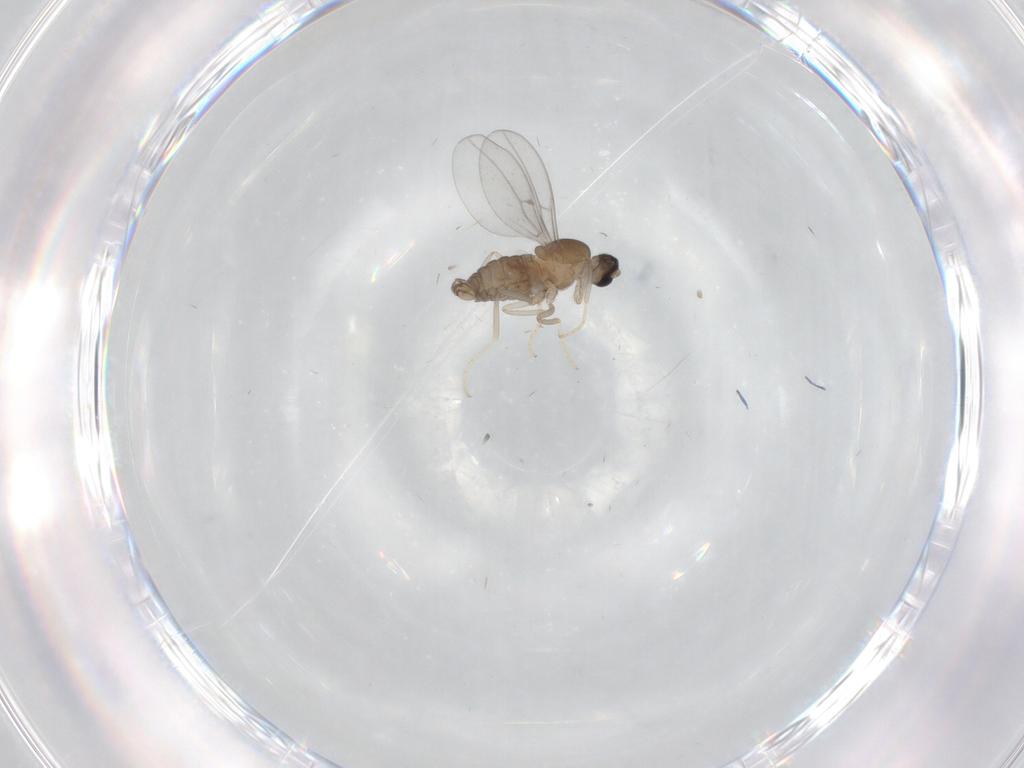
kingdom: Animalia
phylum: Arthropoda
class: Insecta
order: Diptera
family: Cecidomyiidae
